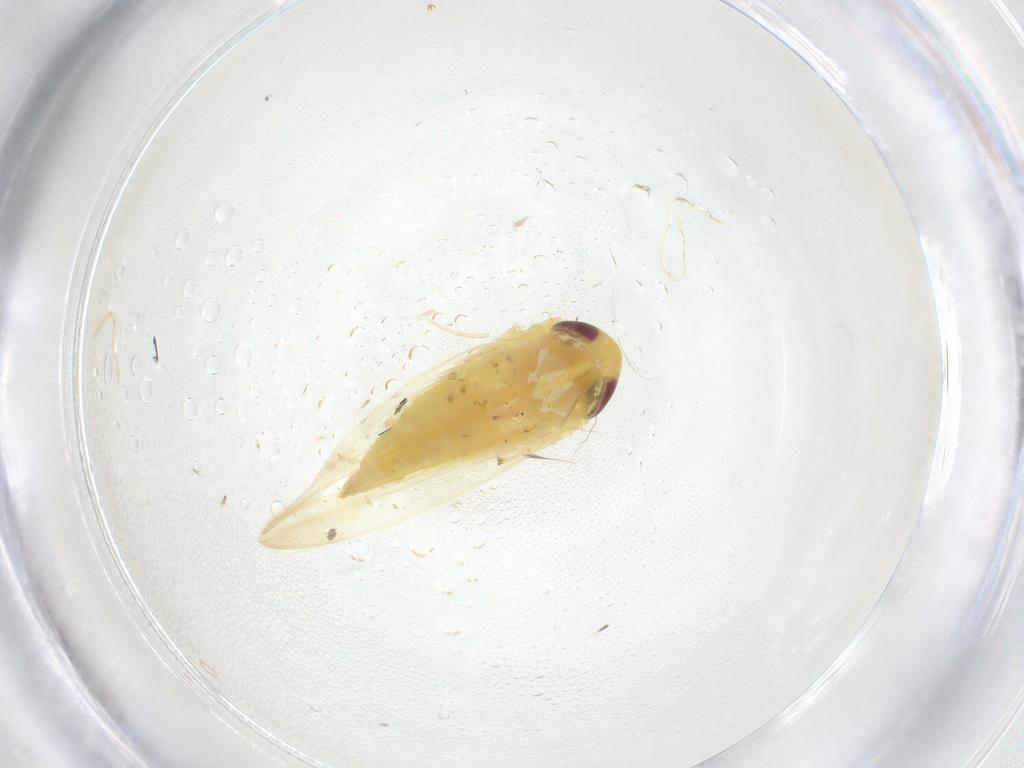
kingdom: Animalia
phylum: Arthropoda
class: Insecta
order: Hemiptera
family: Cicadellidae
